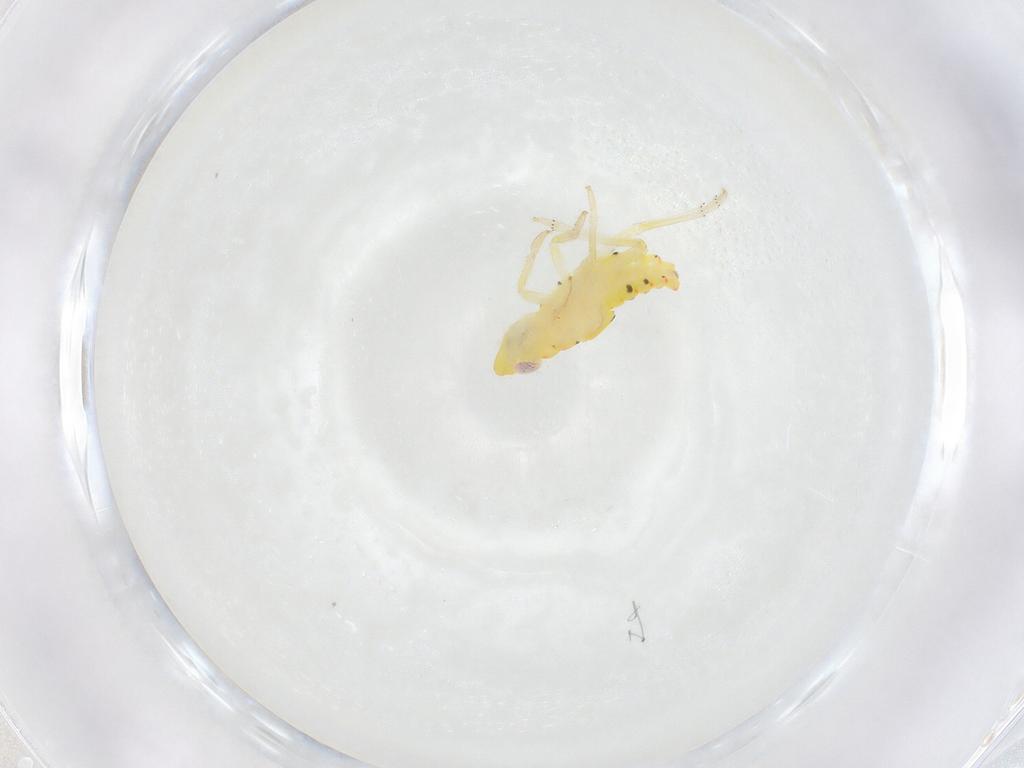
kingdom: Animalia
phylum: Arthropoda
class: Insecta
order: Hemiptera
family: Tropiduchidae
